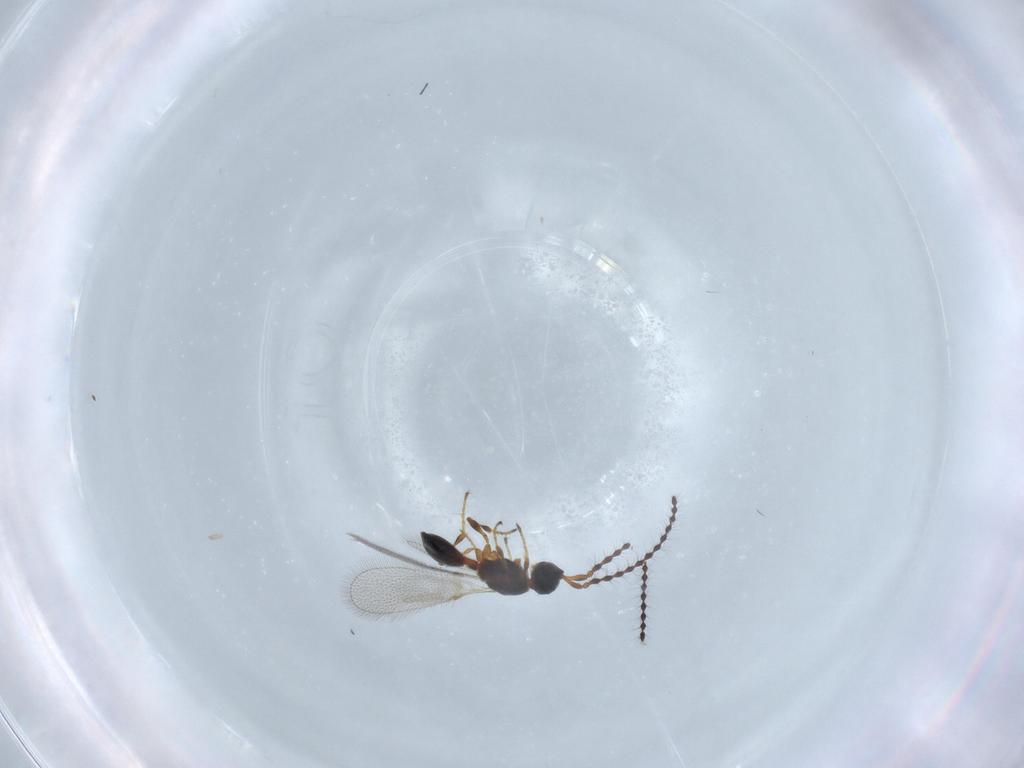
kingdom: Animalia
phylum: Arthropoda
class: Insecta
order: Hymenoptera
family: Diapriidae
